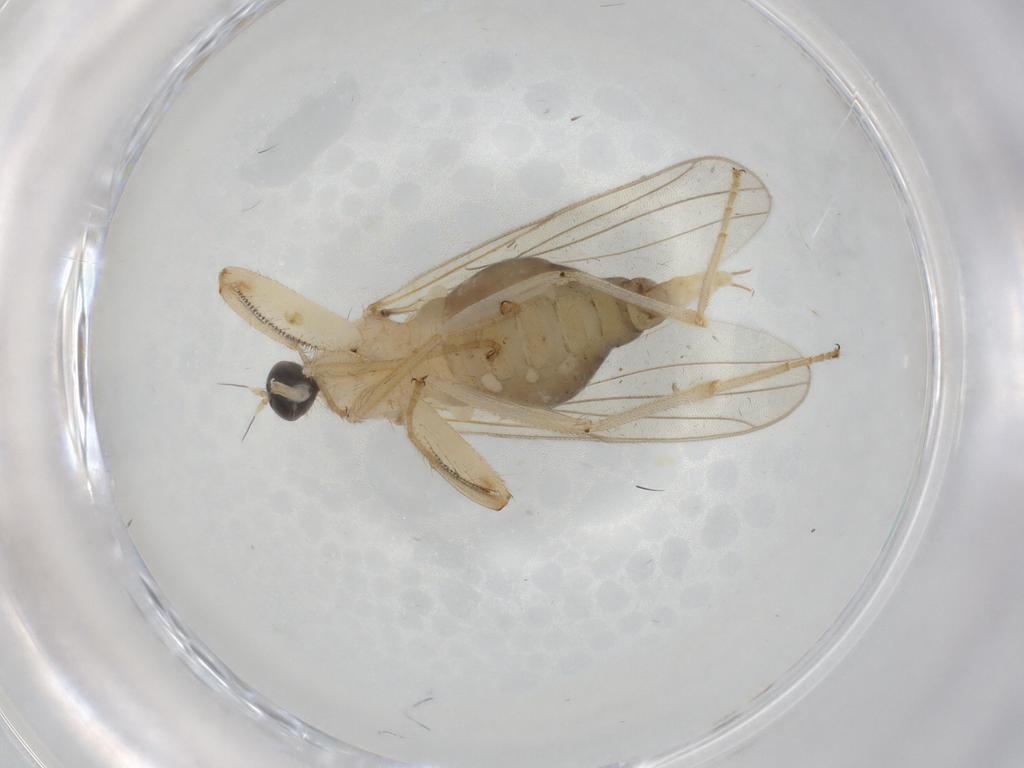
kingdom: Animalia
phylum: Arthropoda
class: Insecta
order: Diptera
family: Hybotidae
